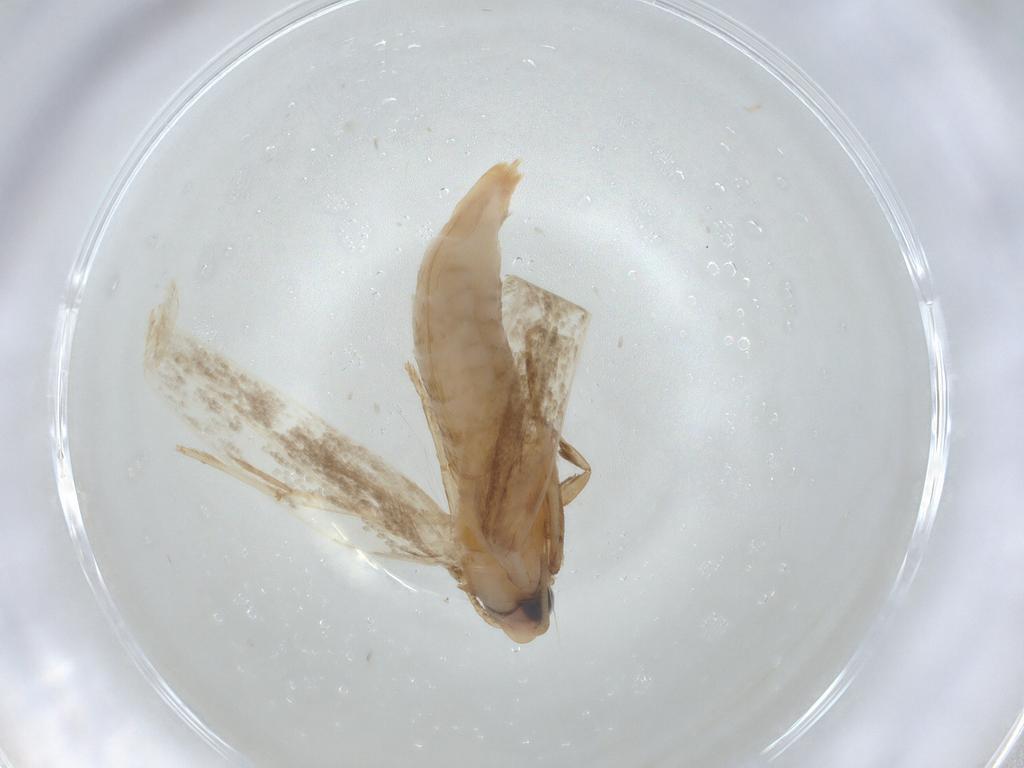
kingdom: Animalia
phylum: Arthropoda
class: Insecta
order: Lepidoptera
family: Tineidae
